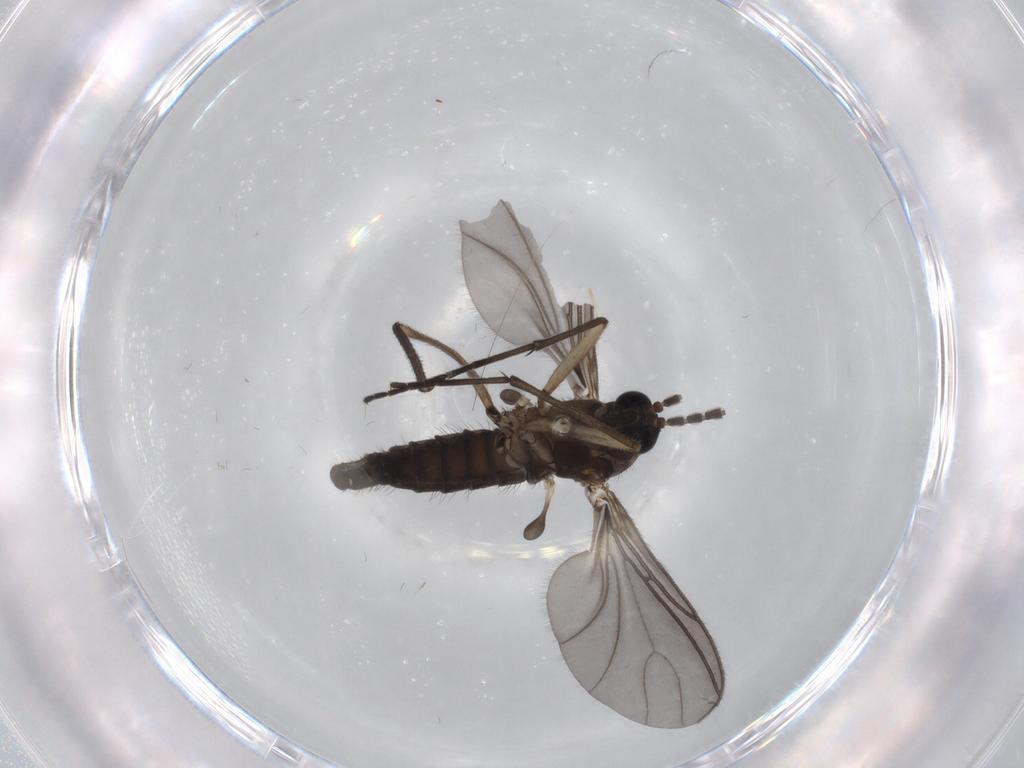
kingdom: Animalia
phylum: Arthropoda
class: Insecta
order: Diptera
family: Sciaridae
